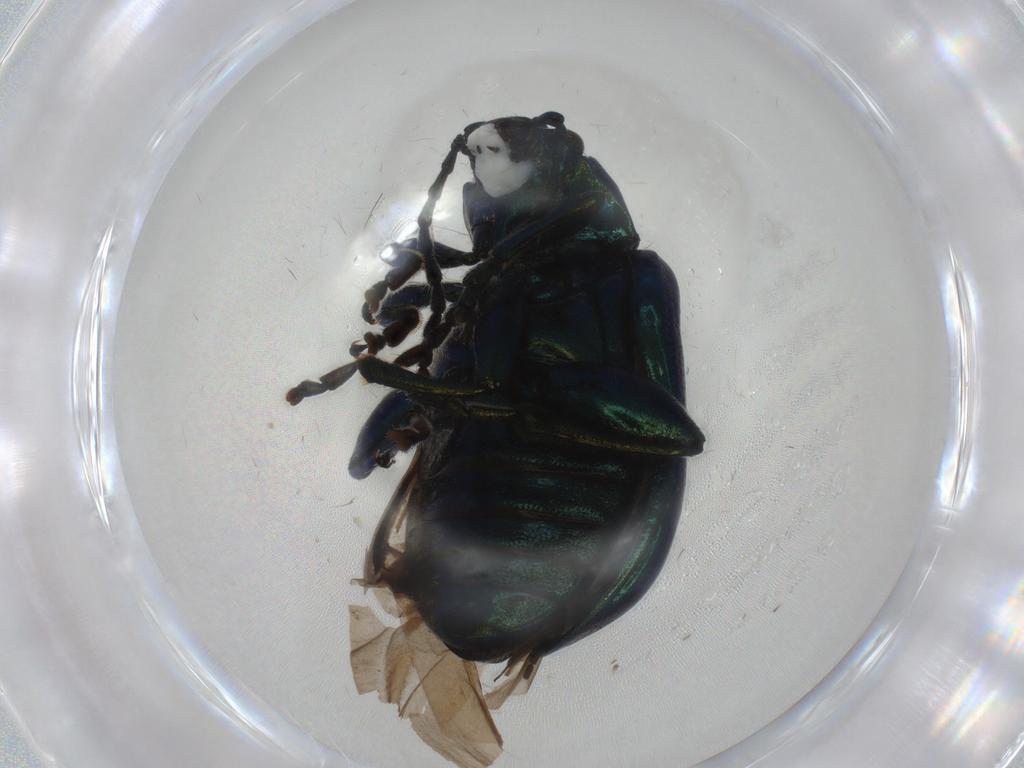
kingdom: Animalia
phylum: Arthropoda
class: Insecta
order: Coleoptera
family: Chrysomelidae
